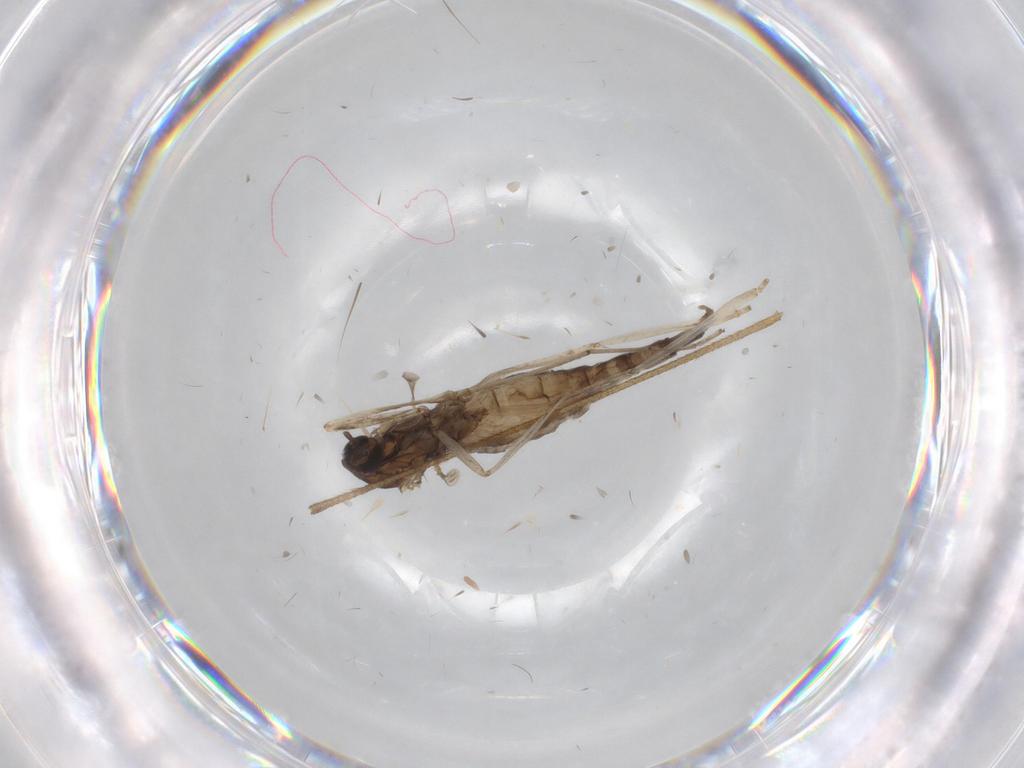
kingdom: Animalia
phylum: Arthropoda
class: Insecta
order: Diptera
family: Cecidomyiidae
